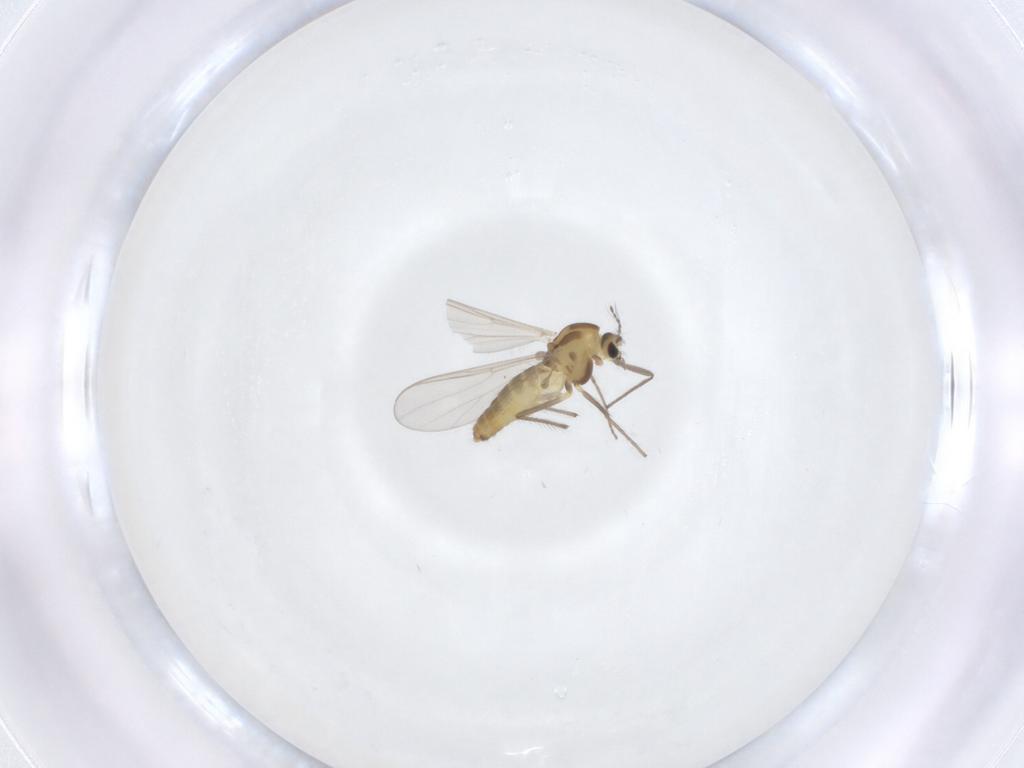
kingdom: Animalia
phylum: Arthropoda
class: Insecta
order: Diptera
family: Chironomidae
